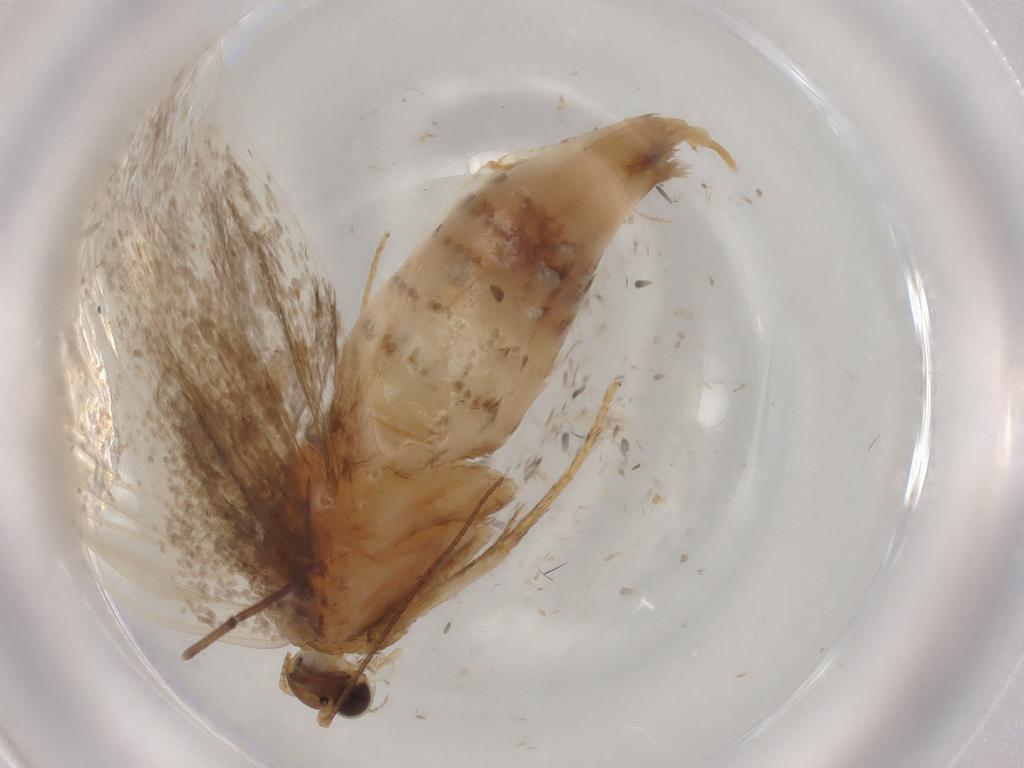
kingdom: Animalia
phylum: Arthropoda
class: Insecta
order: Lepidoptera
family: Crambidae
